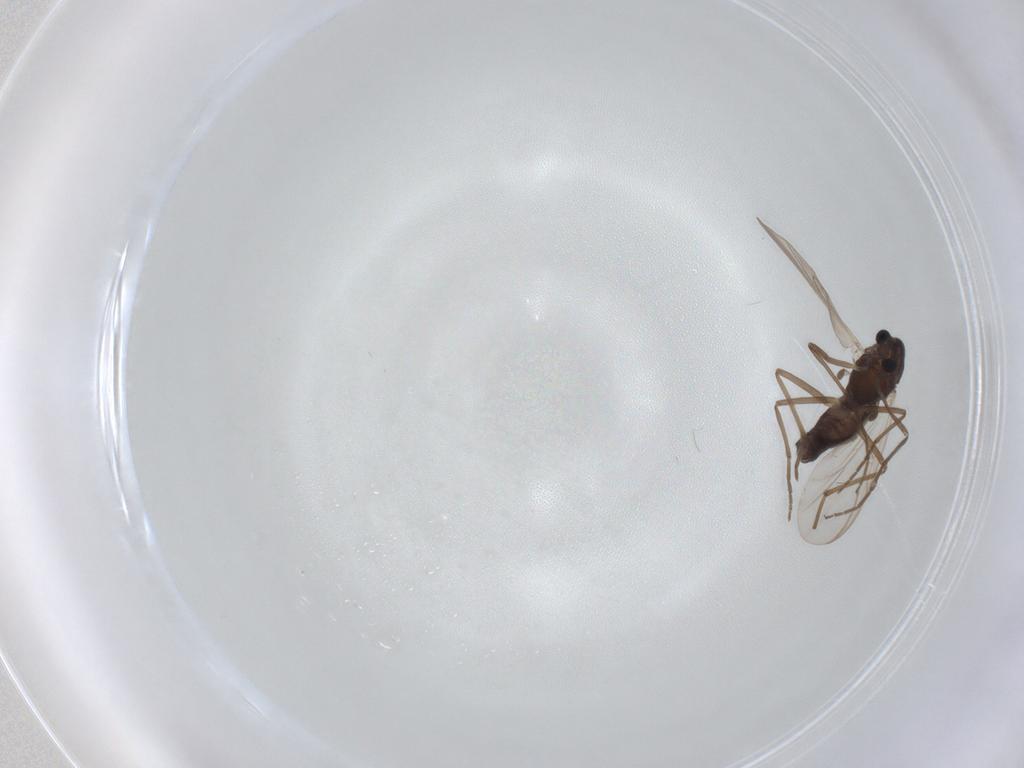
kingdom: Animalia
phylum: Arthropoda
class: Insecta
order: Diptera
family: Chironomidae
